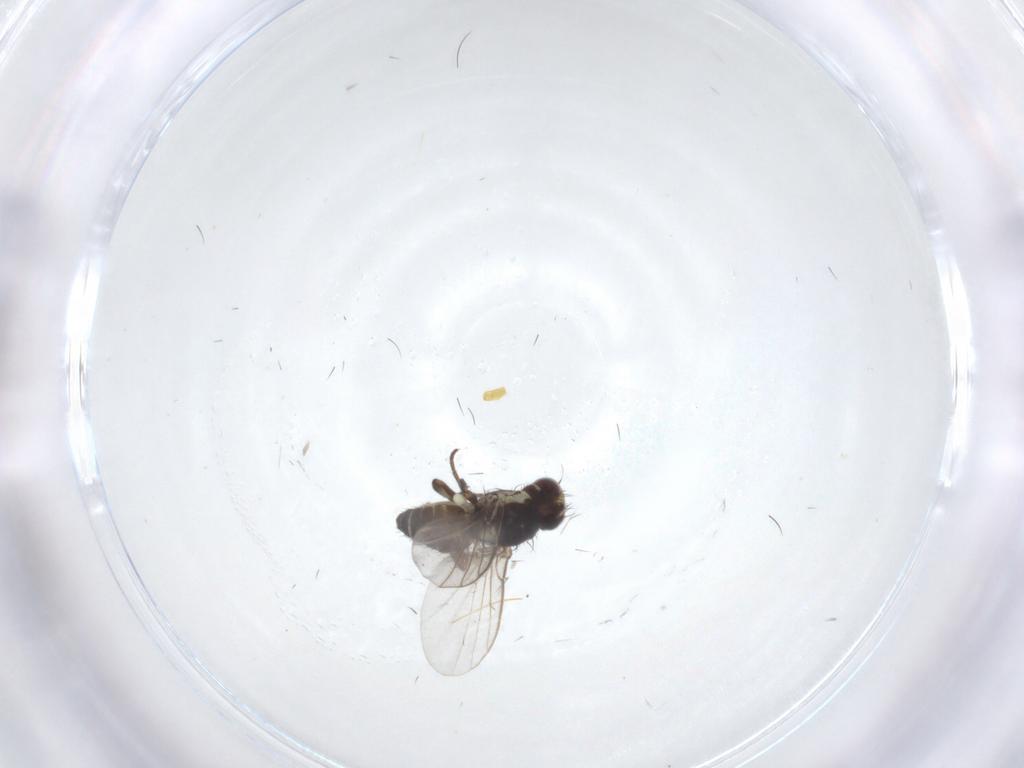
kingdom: Animalia
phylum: Arthropoda
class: Insecta
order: Diptera
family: Agromyzidae
